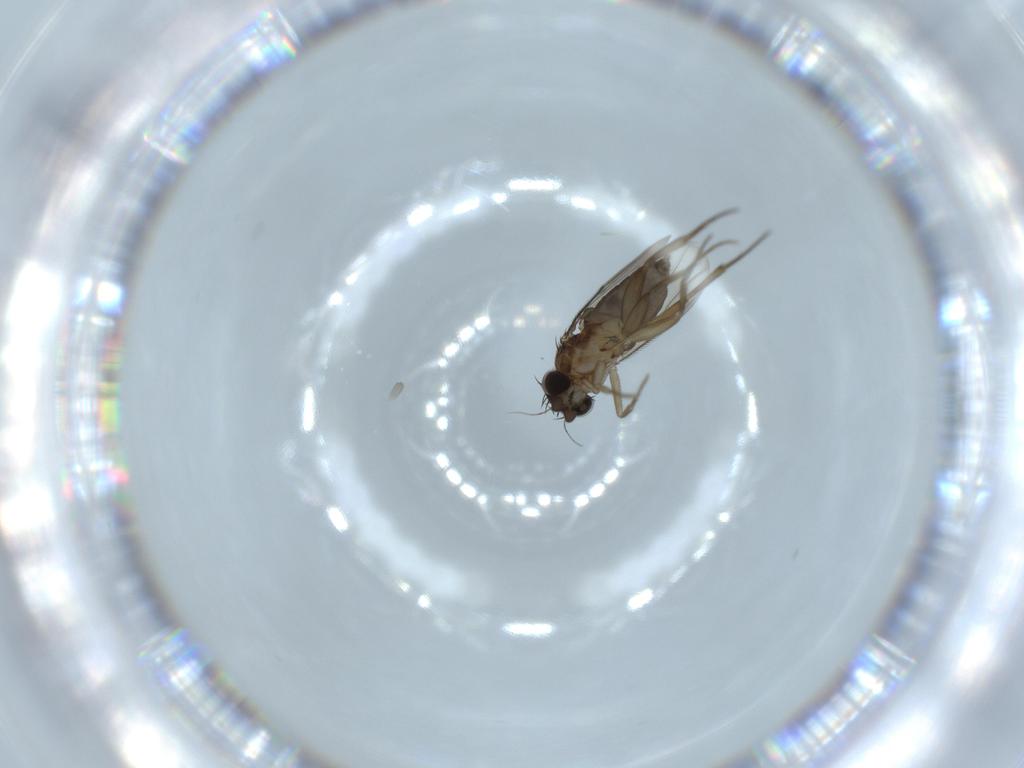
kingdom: Animalia
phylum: Arthropoda
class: Insecta
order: Diptera
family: Phoridae
